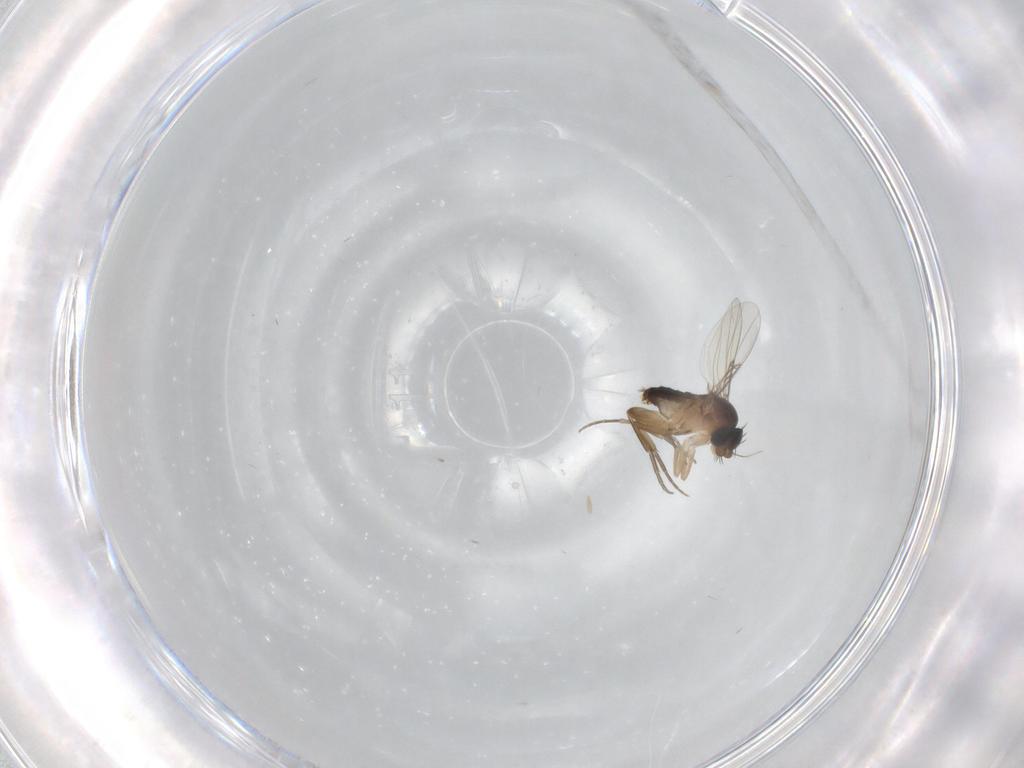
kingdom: Animalia
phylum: Arthropoda
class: Insecta
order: Diptera
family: Phoridae
